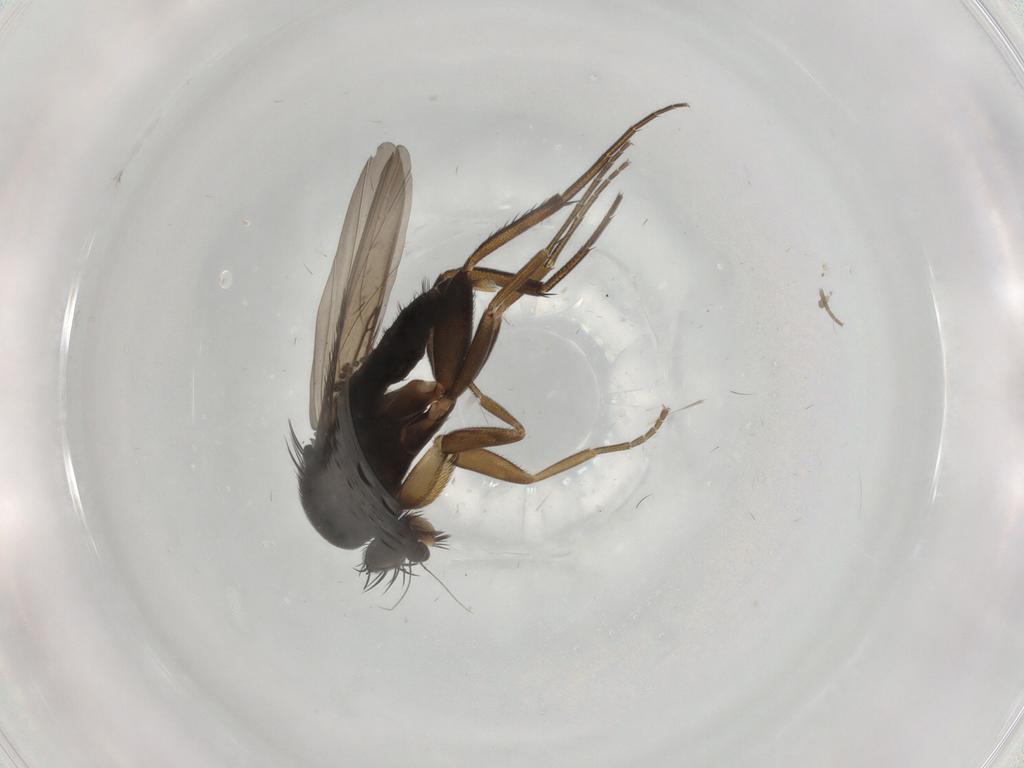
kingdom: Animalia
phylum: Arthropoda
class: Insecta
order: Diptera
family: Phoridae
